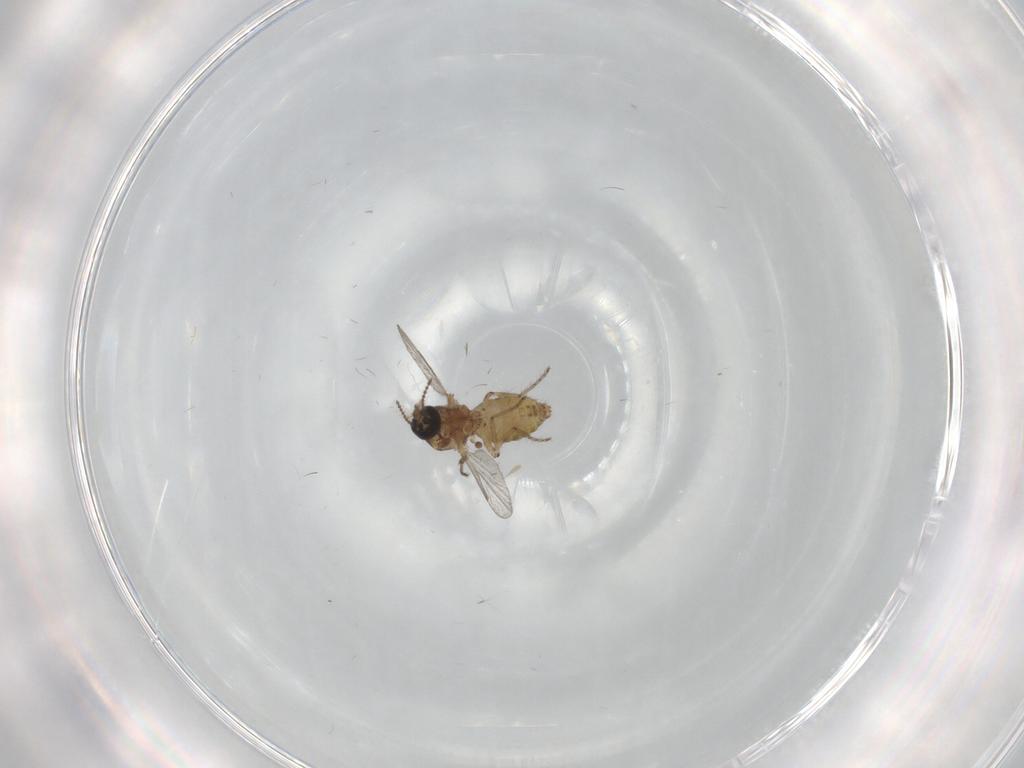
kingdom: Animalia
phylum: Arthropoda
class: Insecta
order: Diptera
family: Ceratopogonidae
